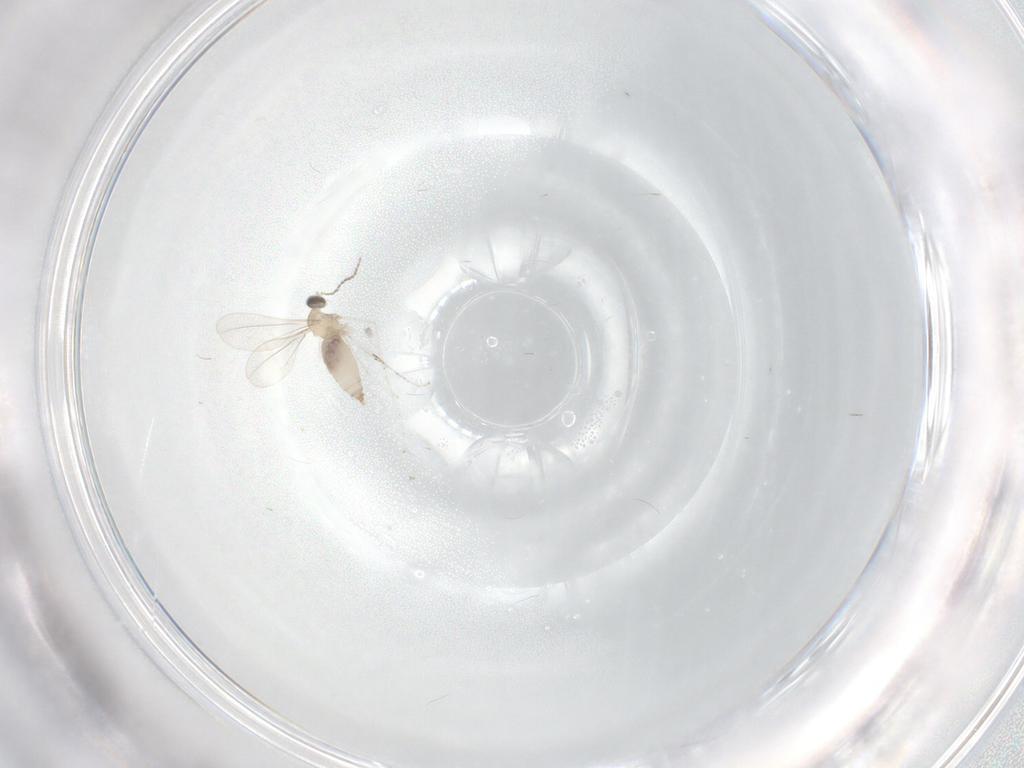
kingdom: Animalia
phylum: Arthropoda
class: Insecta
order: Diptera
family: Cecidomyiidae
